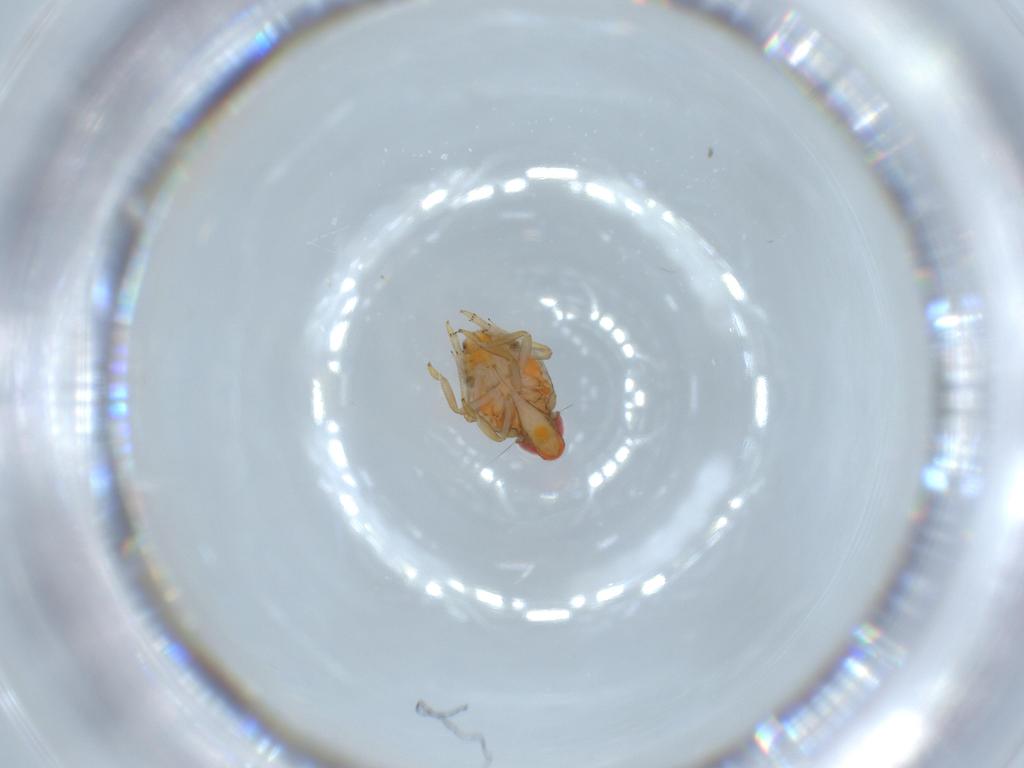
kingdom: Animalia
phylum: Arthropoda
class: Insecta
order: Hemiptera
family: Fulgoroidea_incertae_sedis
